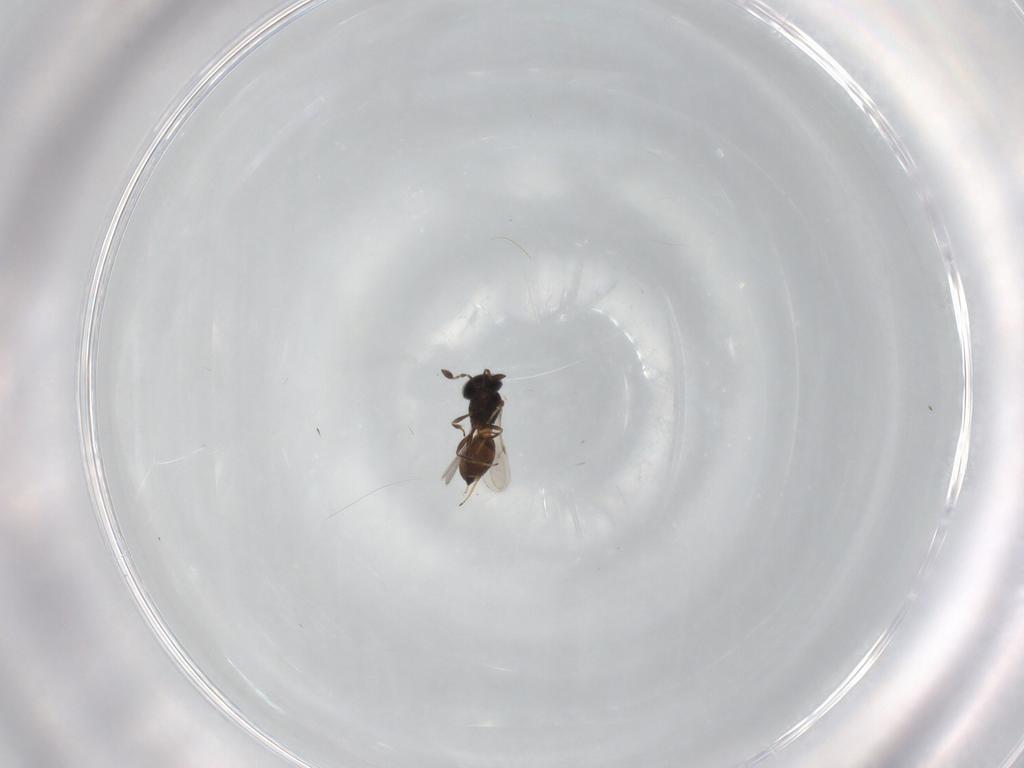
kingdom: Animalia
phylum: Arthropoda
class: Insecta
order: Hymenoptera
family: Scelionidae
